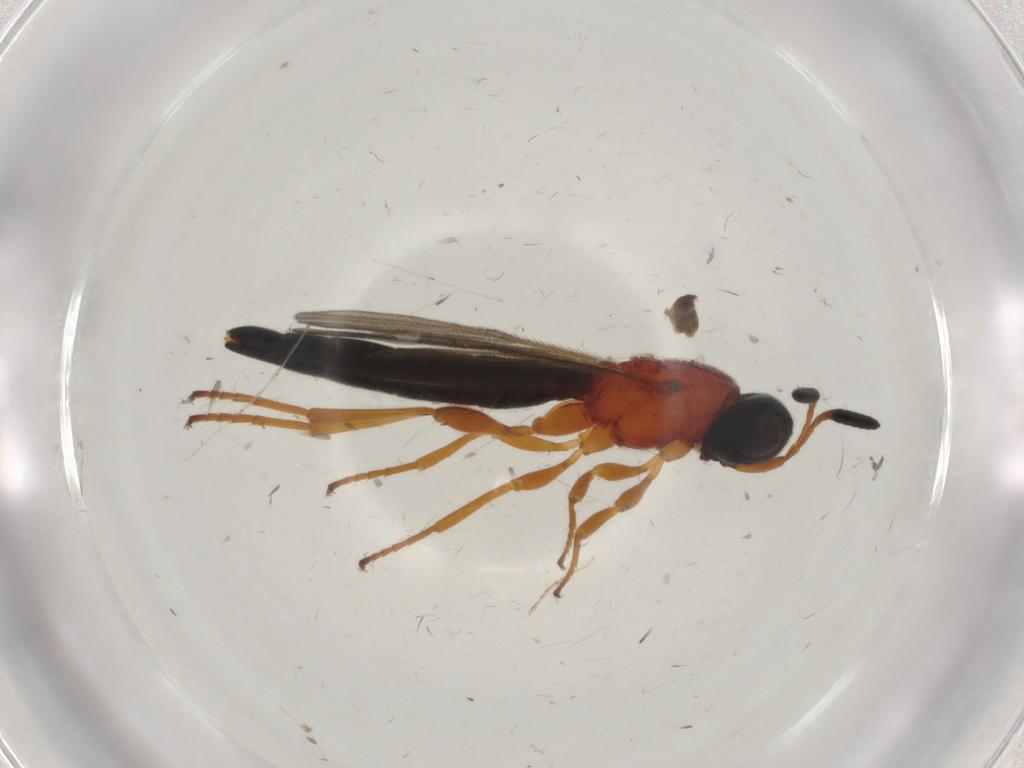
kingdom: Animalia
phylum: Arthropoda
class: Insecta
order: Hymenoptera
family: Scelionidae
